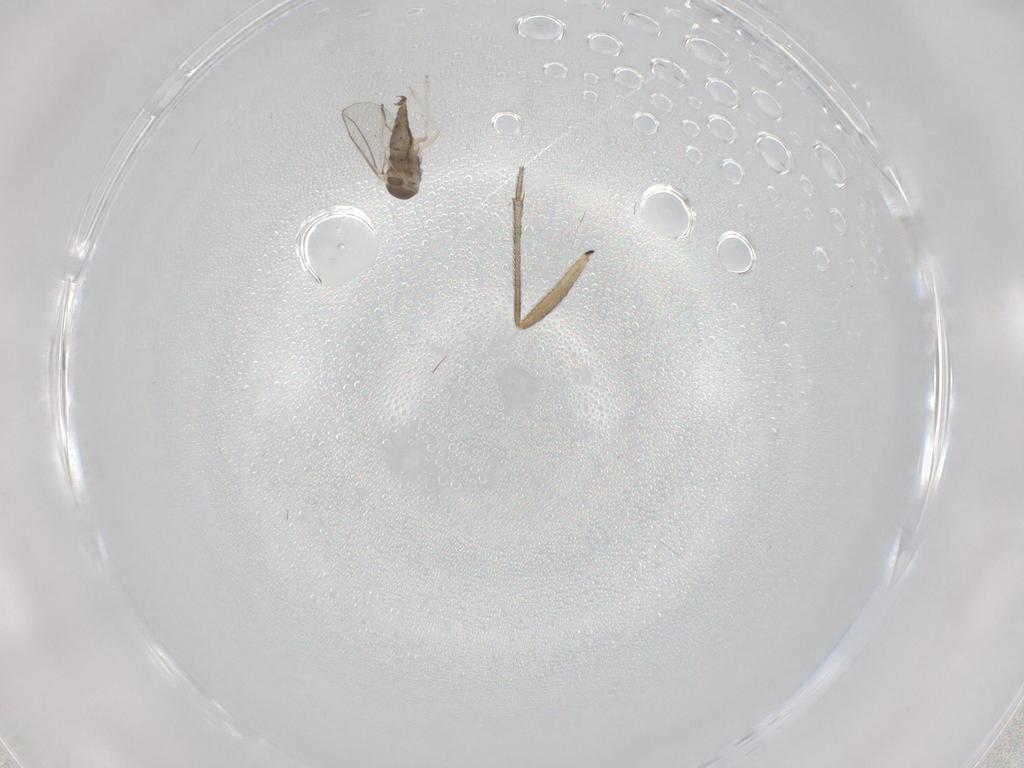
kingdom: Animalia
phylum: Arthropoda
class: Insecta
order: Diptera
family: Cecidomyiidae
